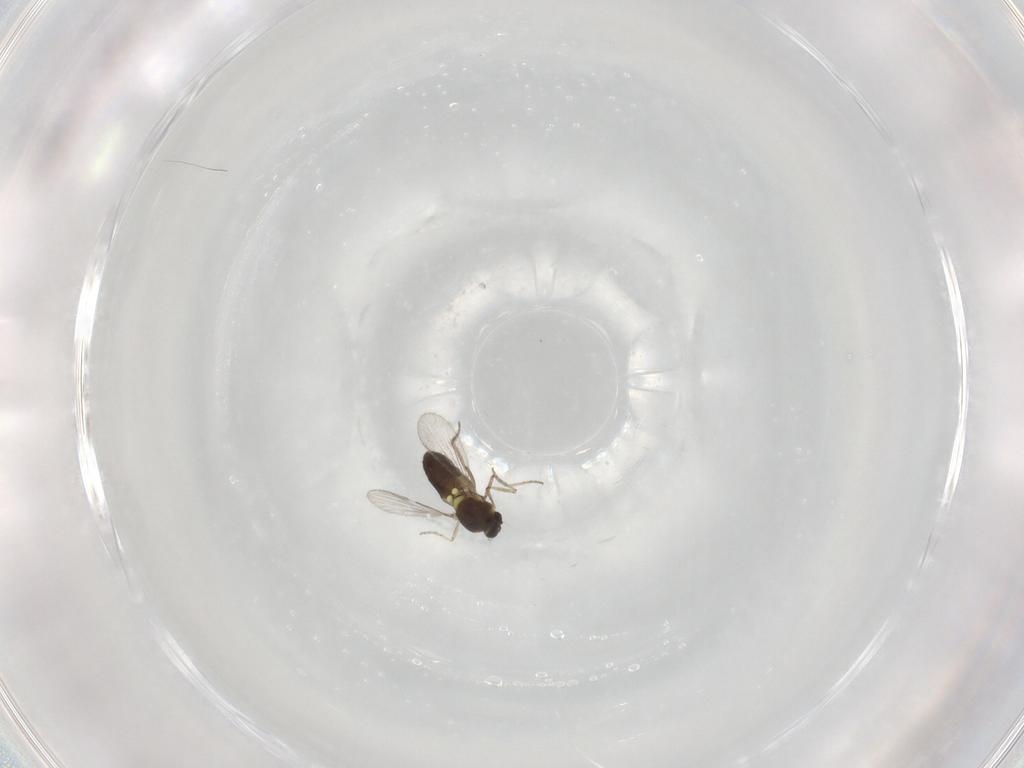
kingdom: Animalia
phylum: Arthropoda
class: Insecta
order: Diptera
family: Ceratopogonidae
